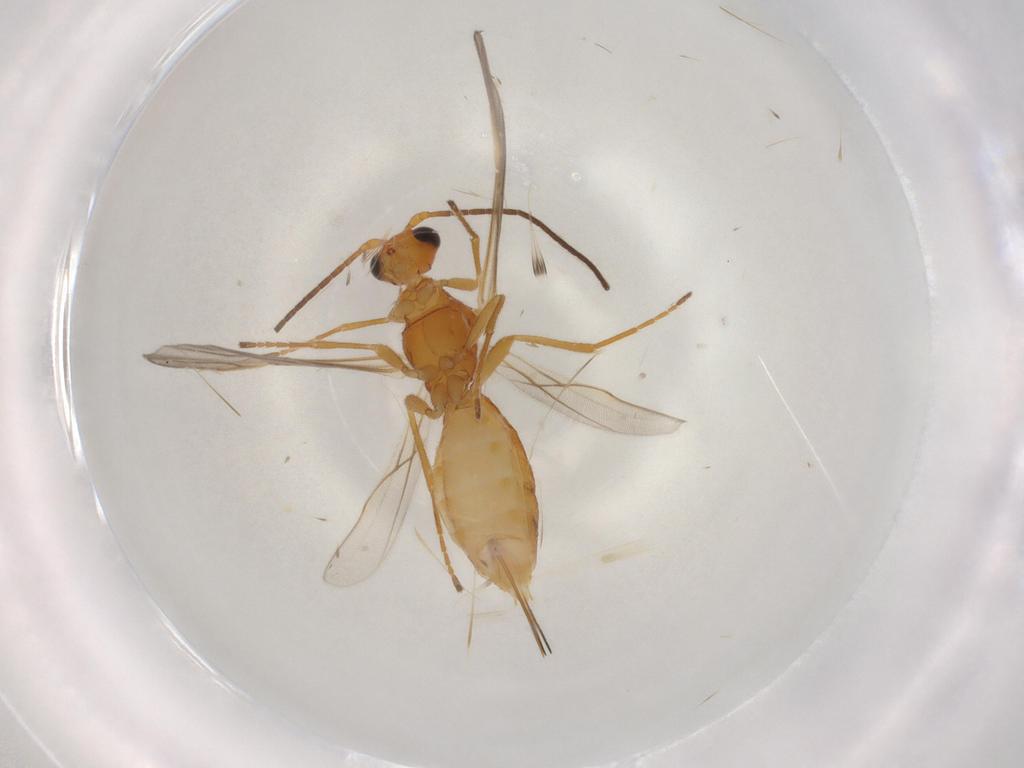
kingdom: Animalia
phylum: Arthropoda
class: Insecta
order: Hymenoptera
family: Braconidae
